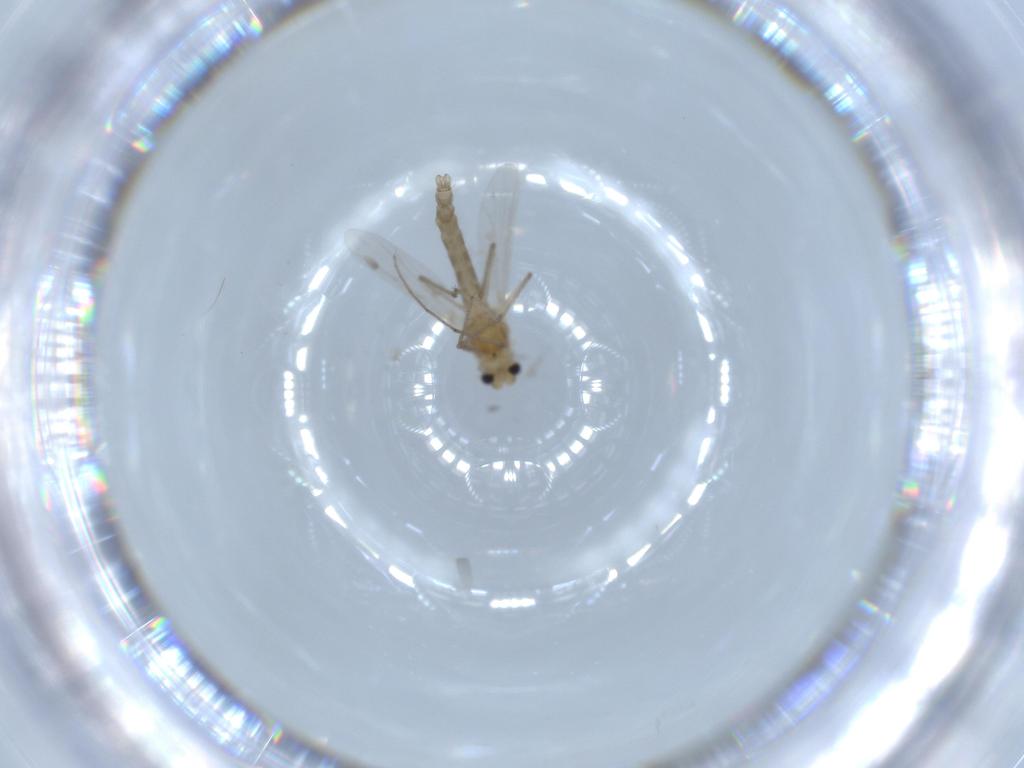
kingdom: Animalia
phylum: Arthropoda
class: Insecta
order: Diptera
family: Chironomidae
